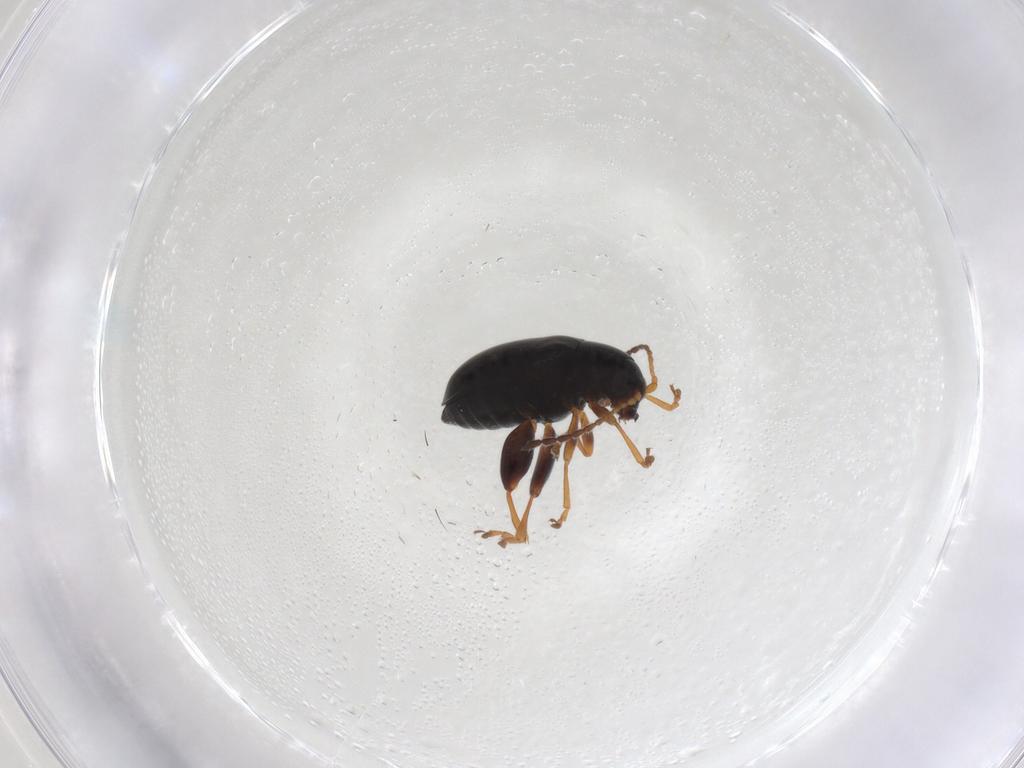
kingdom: Animalia
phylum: Arthropoda
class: Insecta
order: Coleoptera
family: Chrysomelidae
